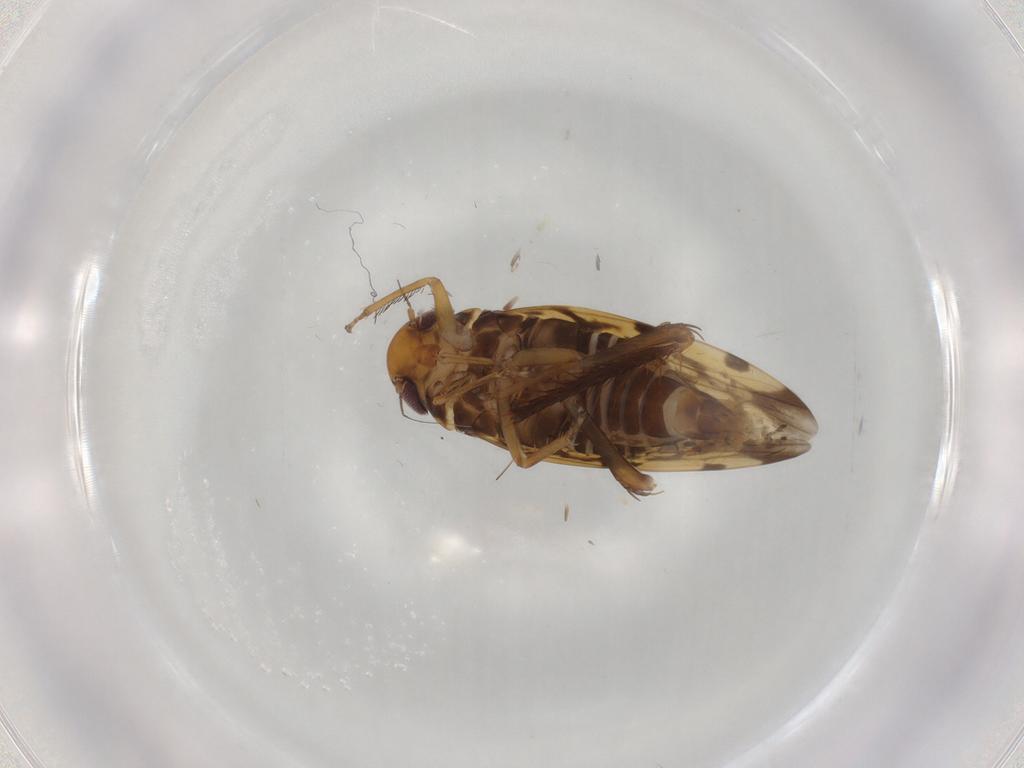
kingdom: Animalia
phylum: Arthropoda
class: Insecta
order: Hemiptera
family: Cicadellidae
